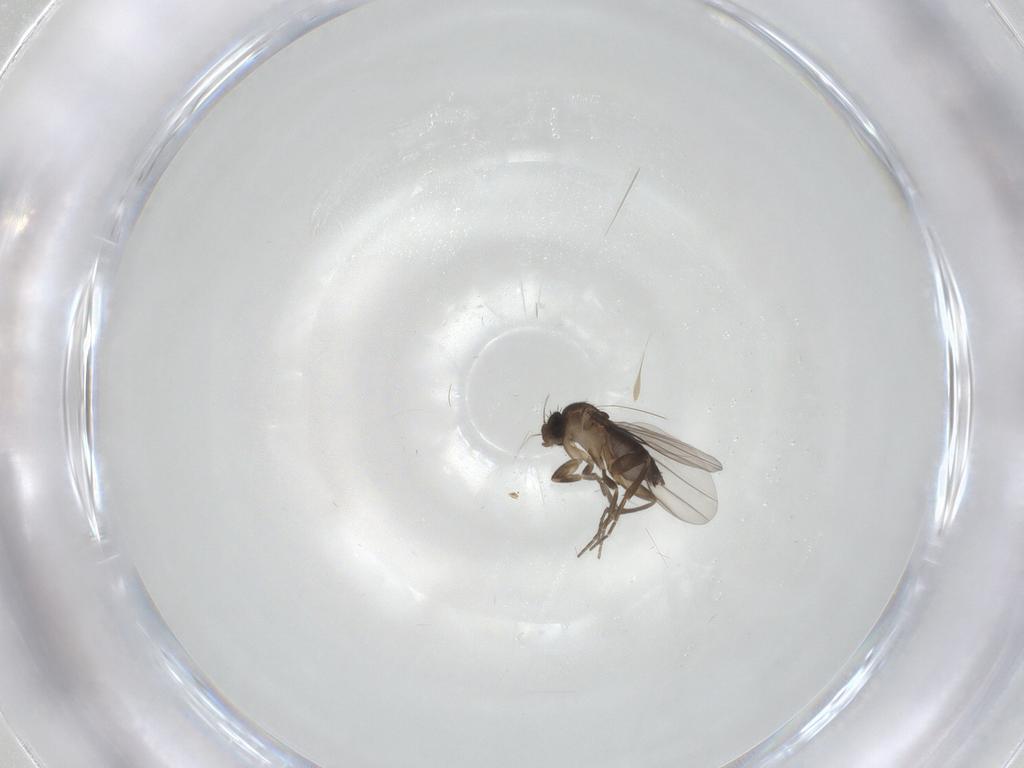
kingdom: Animalia
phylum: Arthropoda
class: Insecta
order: Diptera
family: Phoridae
